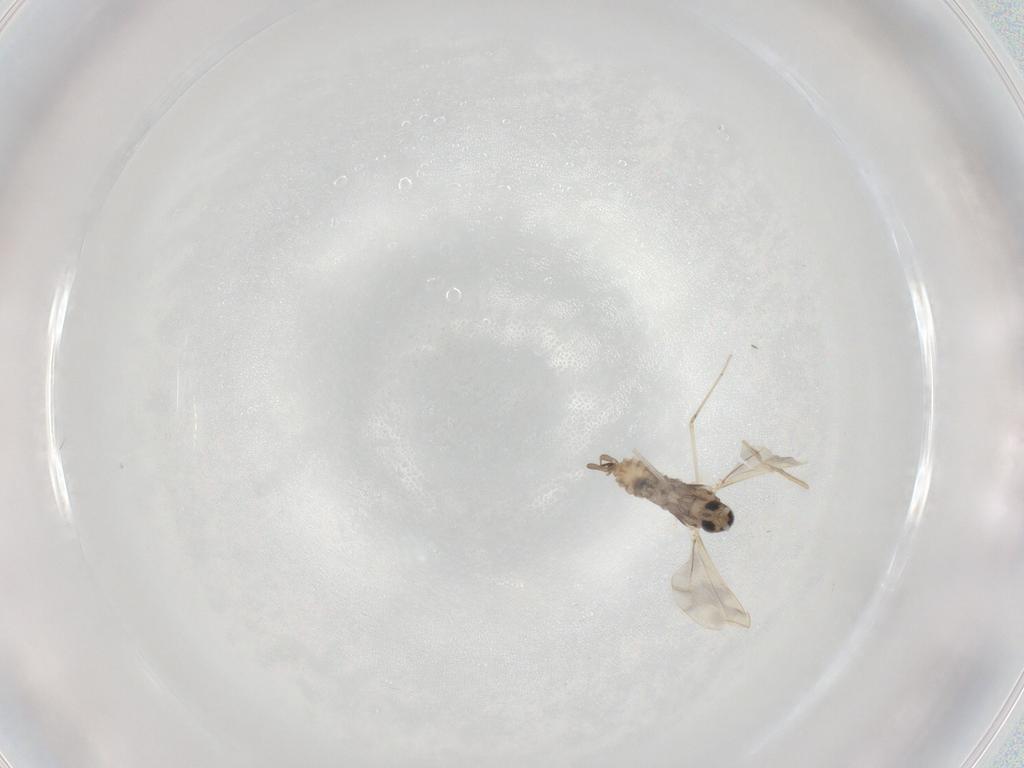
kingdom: Animalia
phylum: Arthropoda
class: Insecta
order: Diptera
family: Cecidomyiidae
